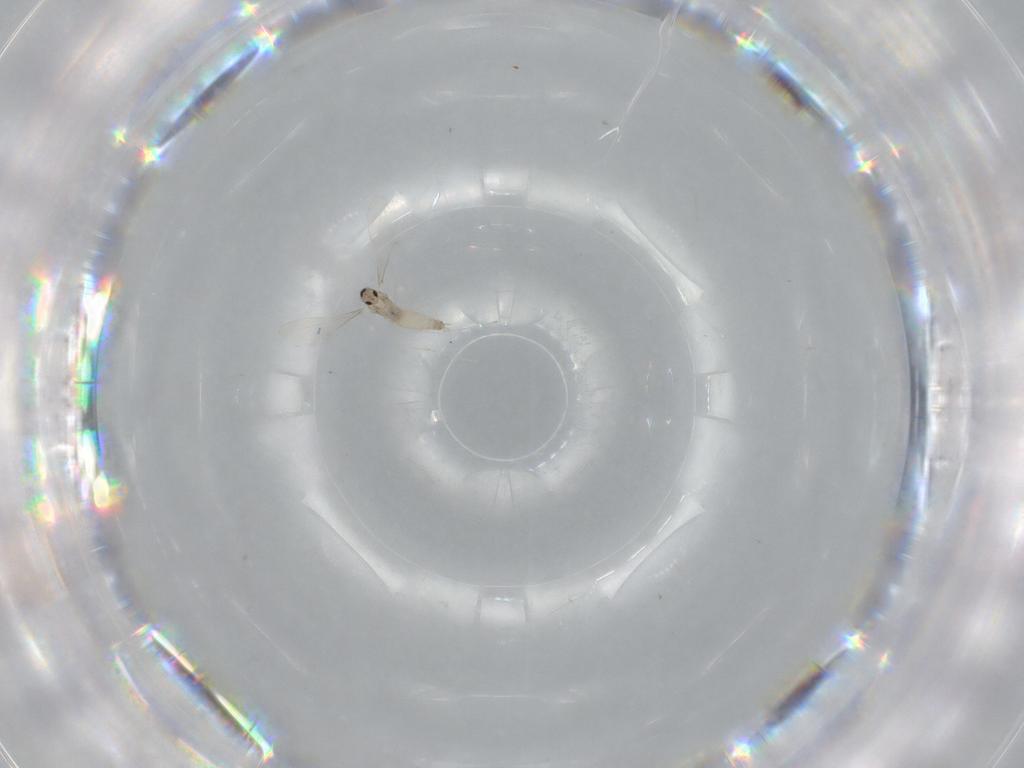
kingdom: Animalia
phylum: Arthropoda
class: Insecta
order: Diptera
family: Cecidomyiidae
